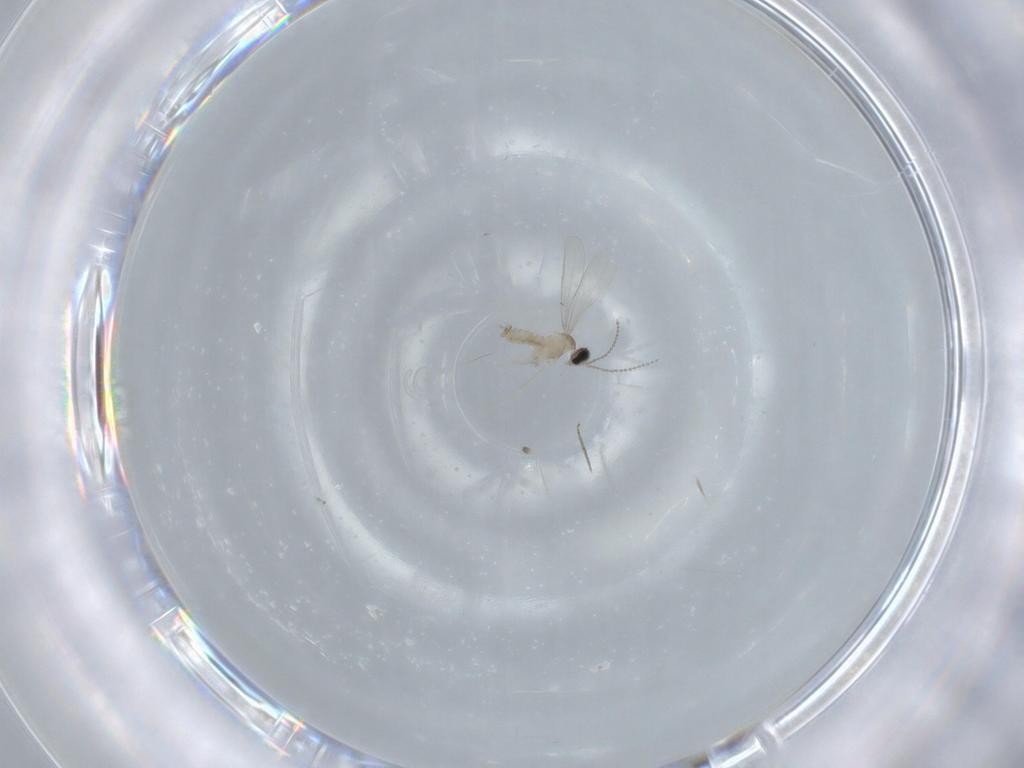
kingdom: Animalia
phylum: Arthropoda
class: Insecta
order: Diptera
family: Cecidomyiidae
